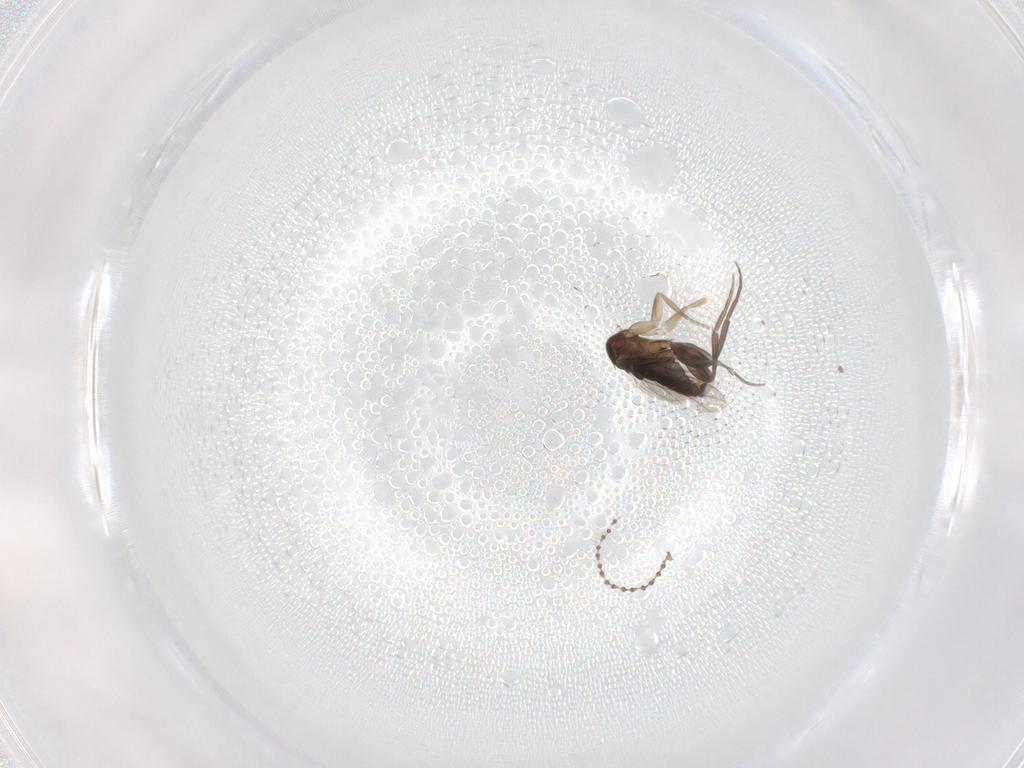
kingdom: Animalia
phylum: Arthropoda
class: Insecta
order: Diptera
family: Phoridae
